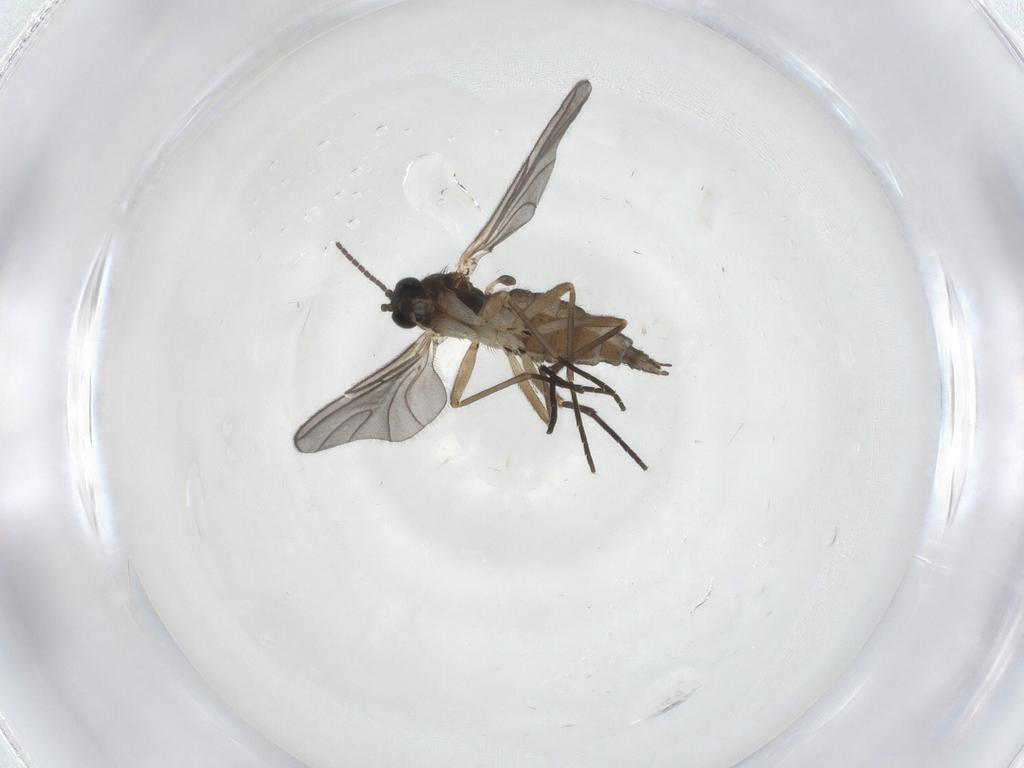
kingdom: Animalia
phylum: Arthropoda
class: Insecta
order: Diptera
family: Sciaridae
